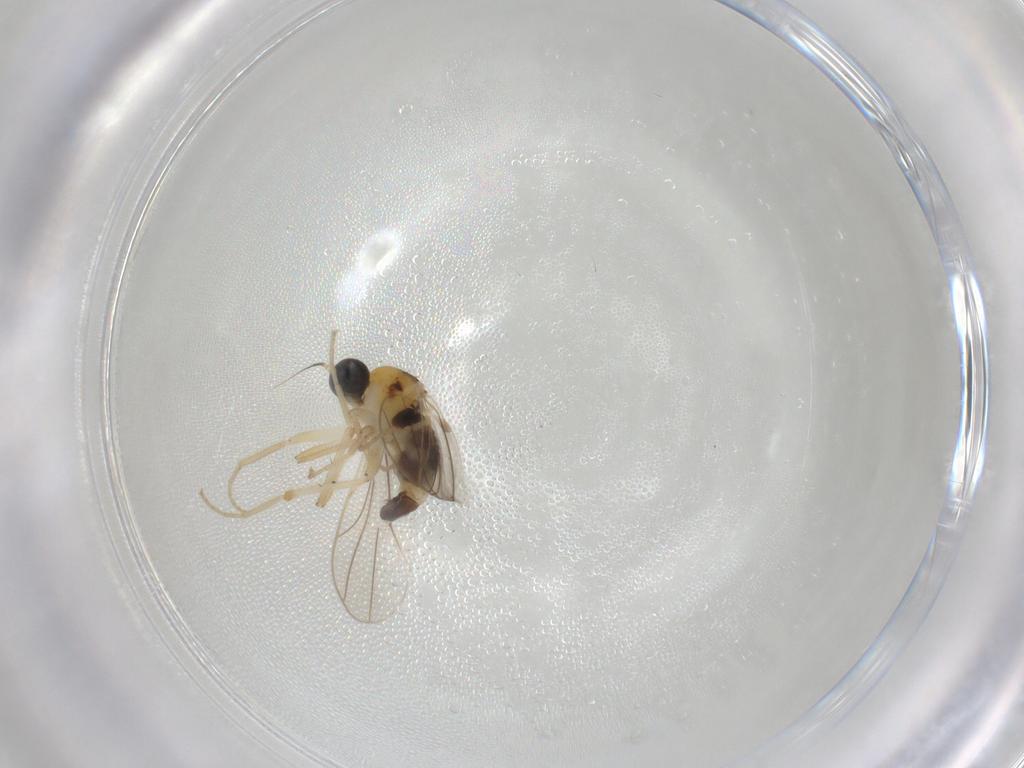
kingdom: Animalia
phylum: Arthropoda
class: Insecta
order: Diptera
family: Hybotidae
